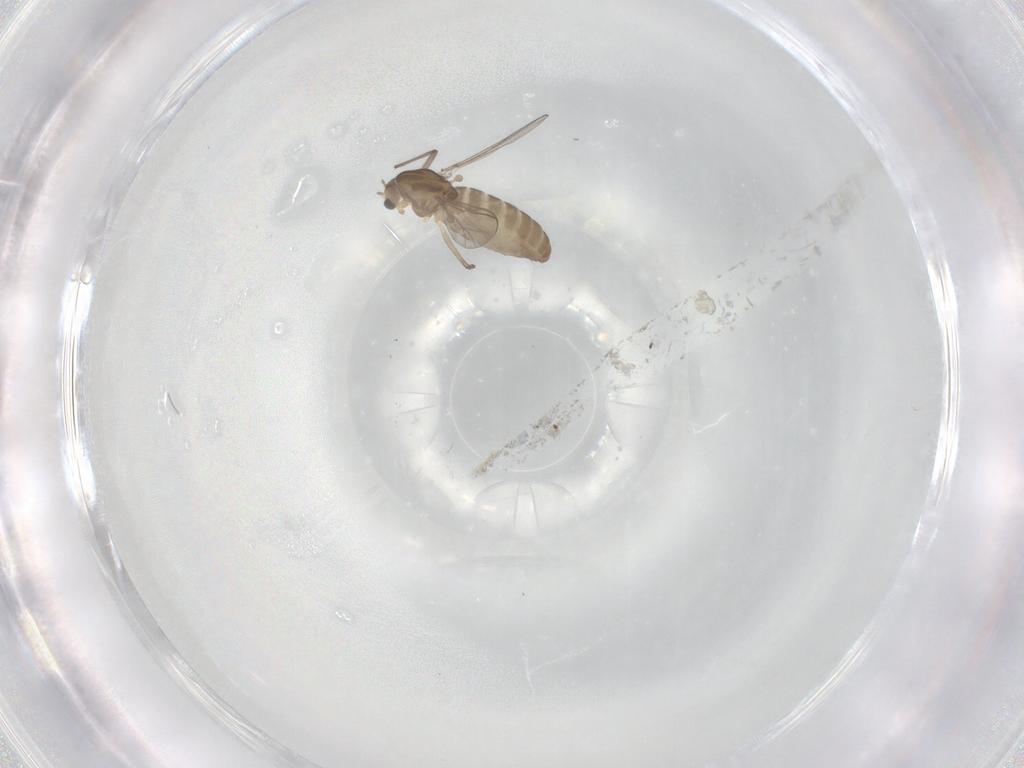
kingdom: Animalia
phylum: Arthropoda
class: Insecta
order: Diptera
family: Chironomidae
